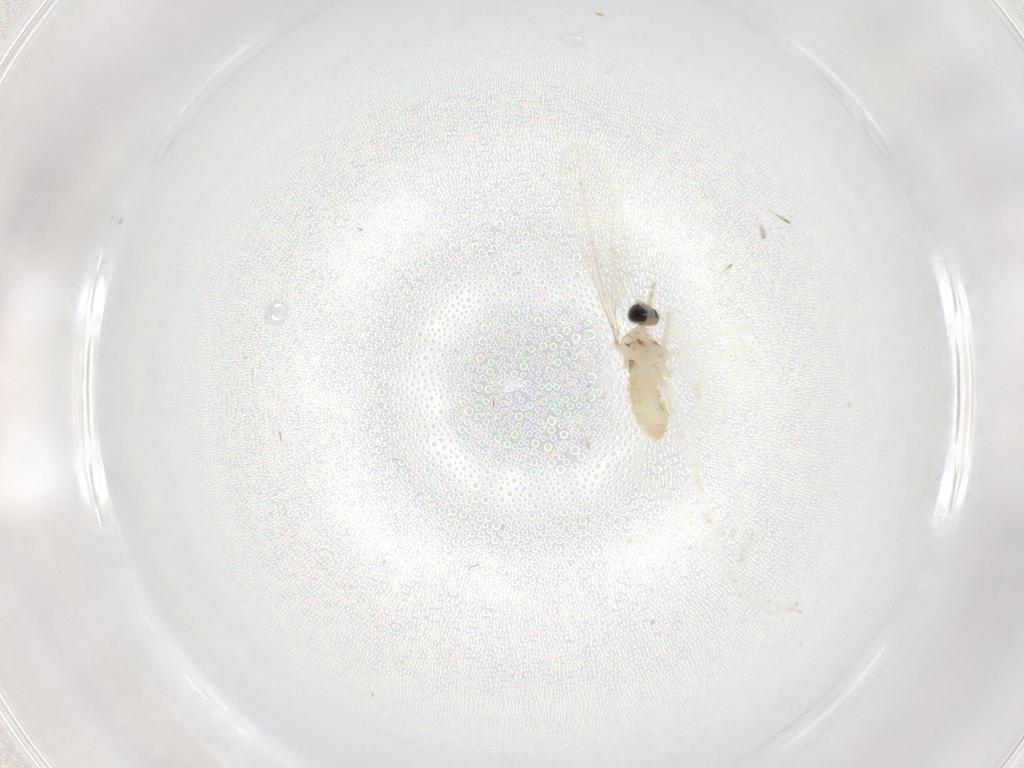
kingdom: Animalia
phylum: Arthropoda
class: Insecta
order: Diptera
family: Cecidomyiidae
